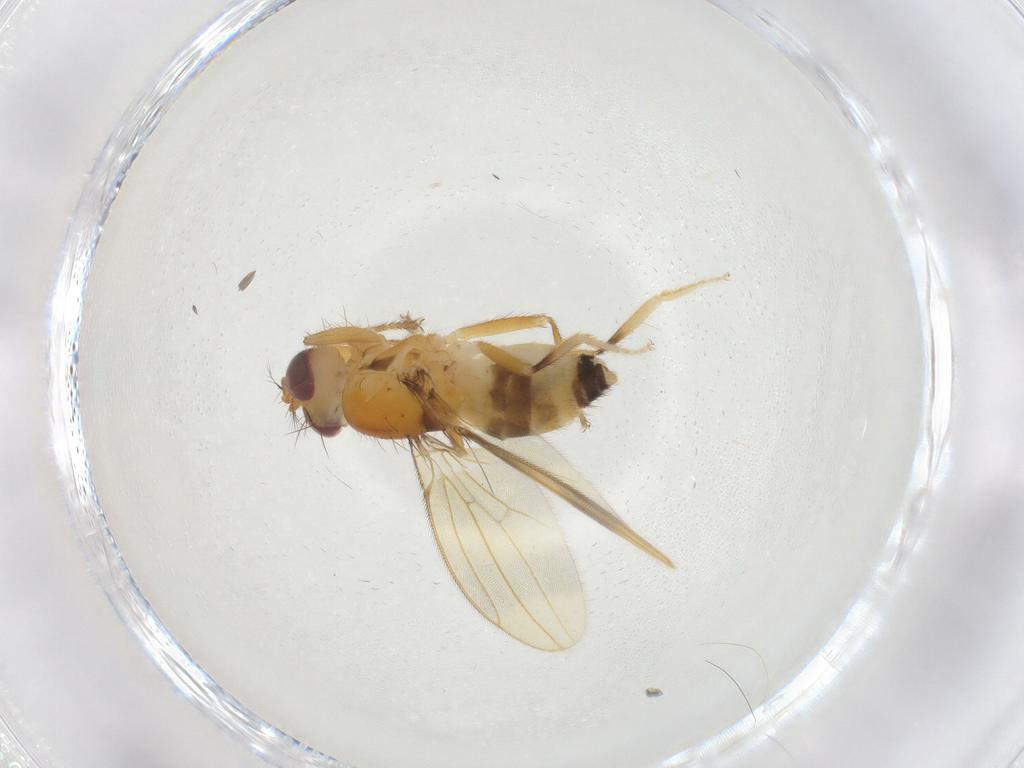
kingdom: Animalia
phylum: Arthropoda
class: Insecta
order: Diptera
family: Periscelididae
